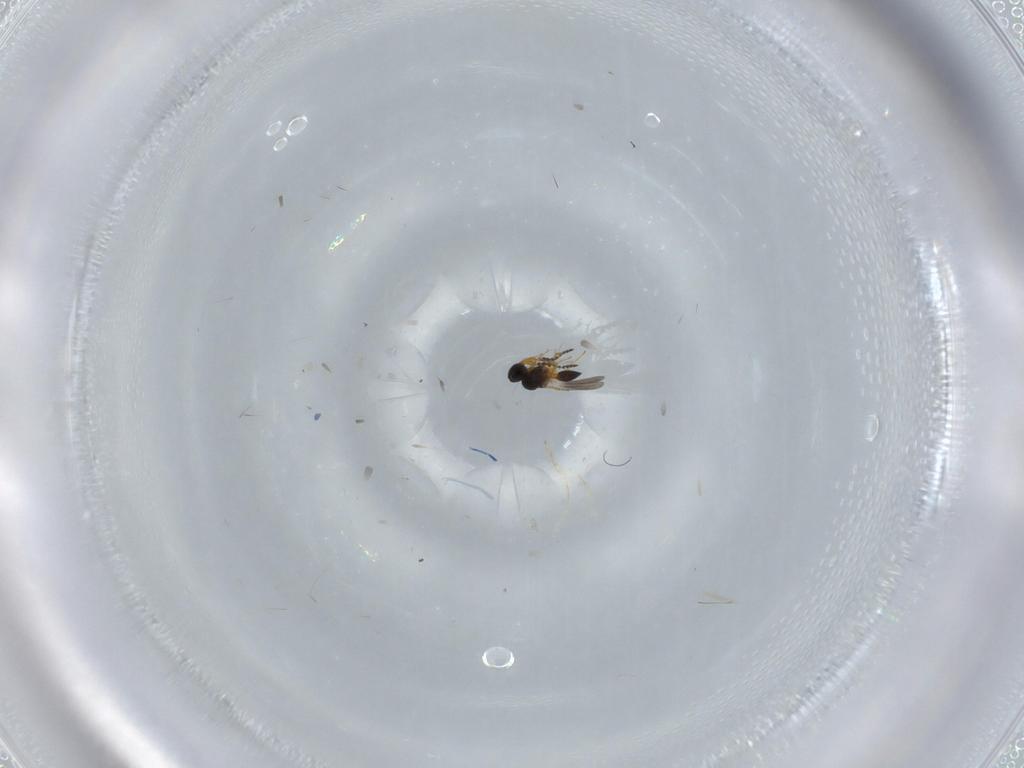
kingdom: Animalia
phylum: Arthropoda
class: Insecta
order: Hymenoptera
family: Platygastridae
